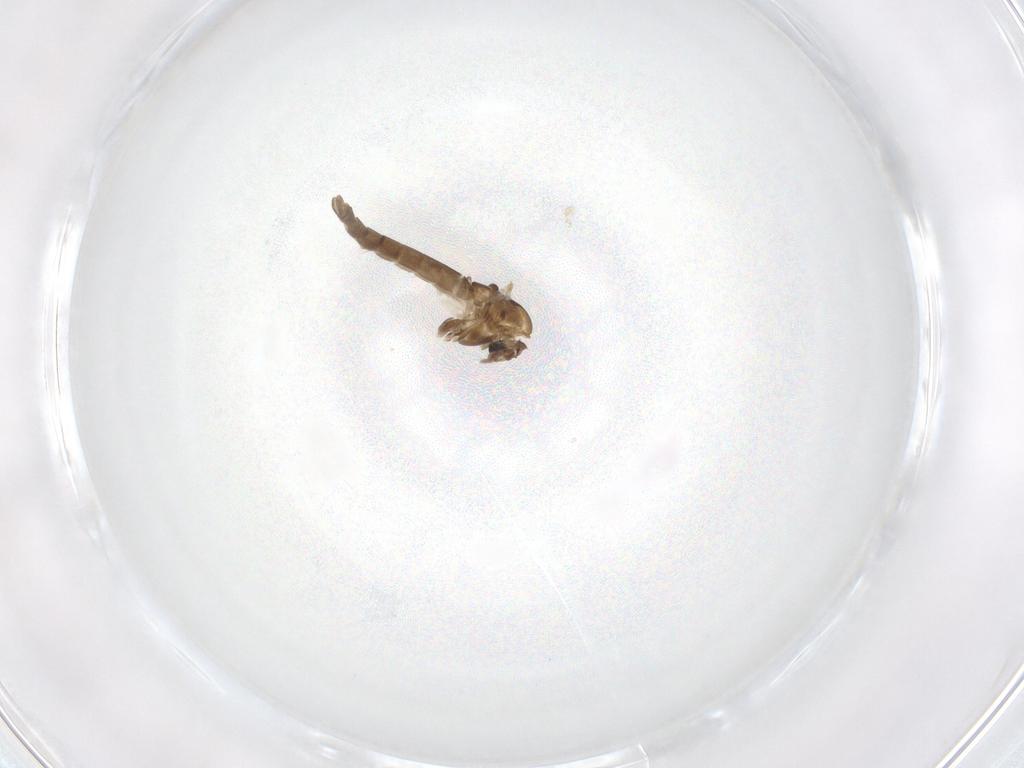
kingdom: Animalia
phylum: Arthropoda
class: Insecta
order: Diptera
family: Chironomidae
